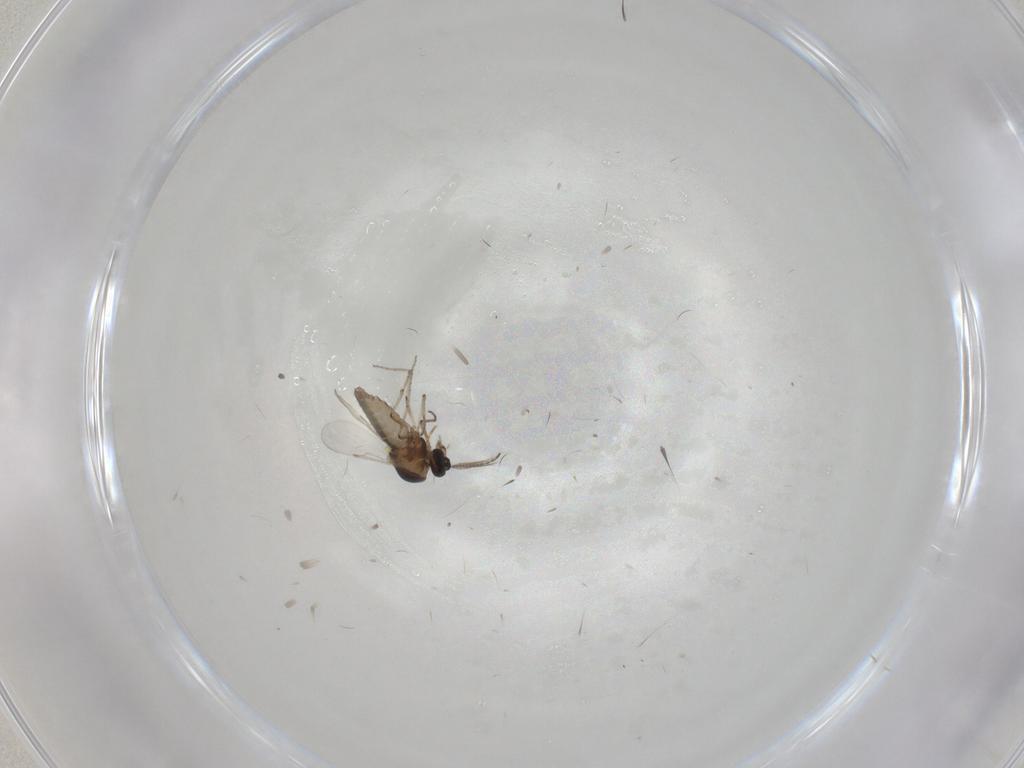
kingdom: Animalia
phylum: Arthropoda
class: Insecta
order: Diptera
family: Ceratopogonidae
